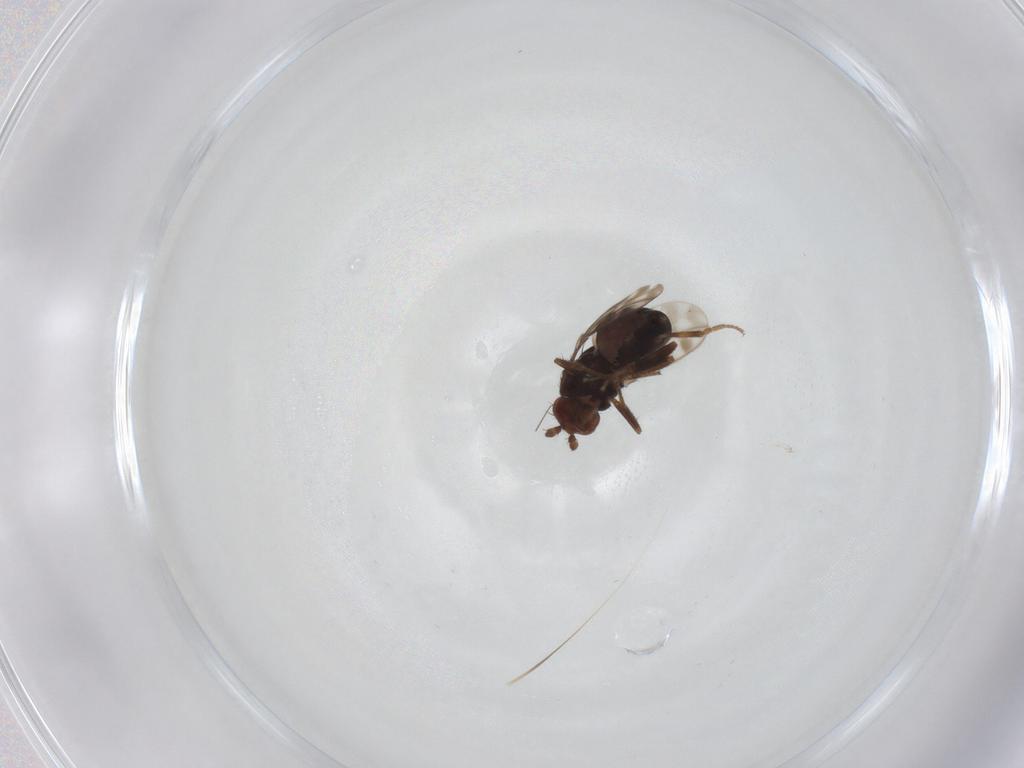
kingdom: Animalia
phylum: Arthropoda
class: Insecta
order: Diptera
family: Sphaeroceridae
